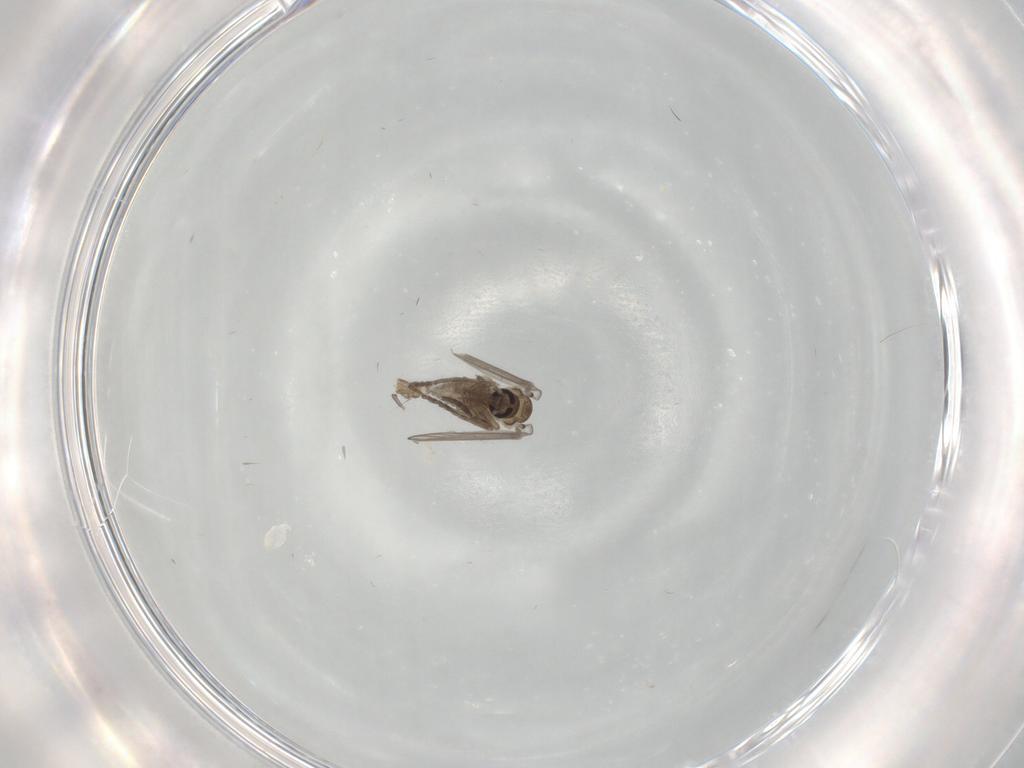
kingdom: Animalia
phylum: Arthropoda
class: Insecta
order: Diptera
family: Psychodidae
